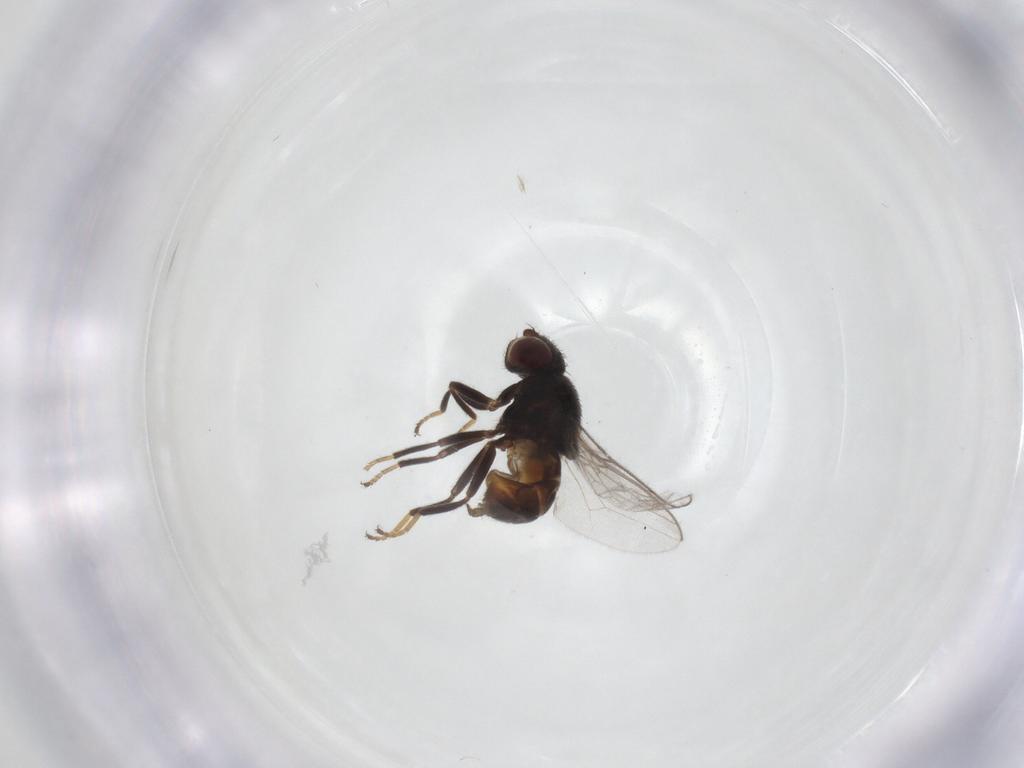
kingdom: Animalia
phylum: Arthropoda
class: Insecta
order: Diptera
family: Chloropidae
